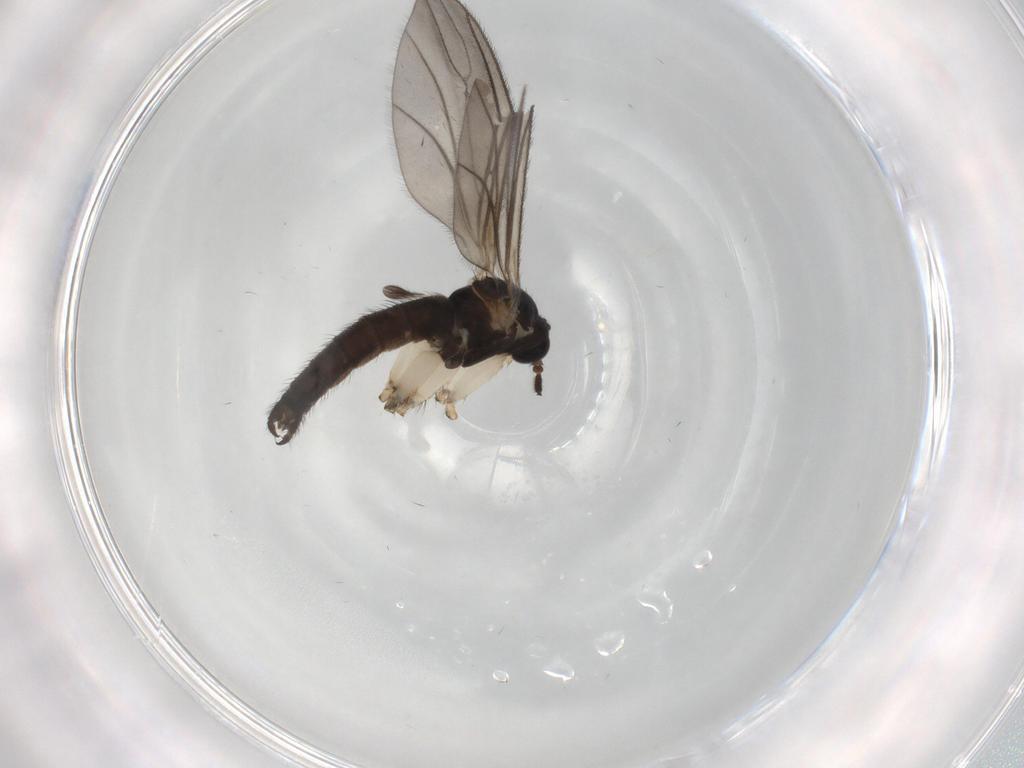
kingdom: Animalia
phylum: Arthropoda
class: Insecta
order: Diptera
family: Sciaridae
